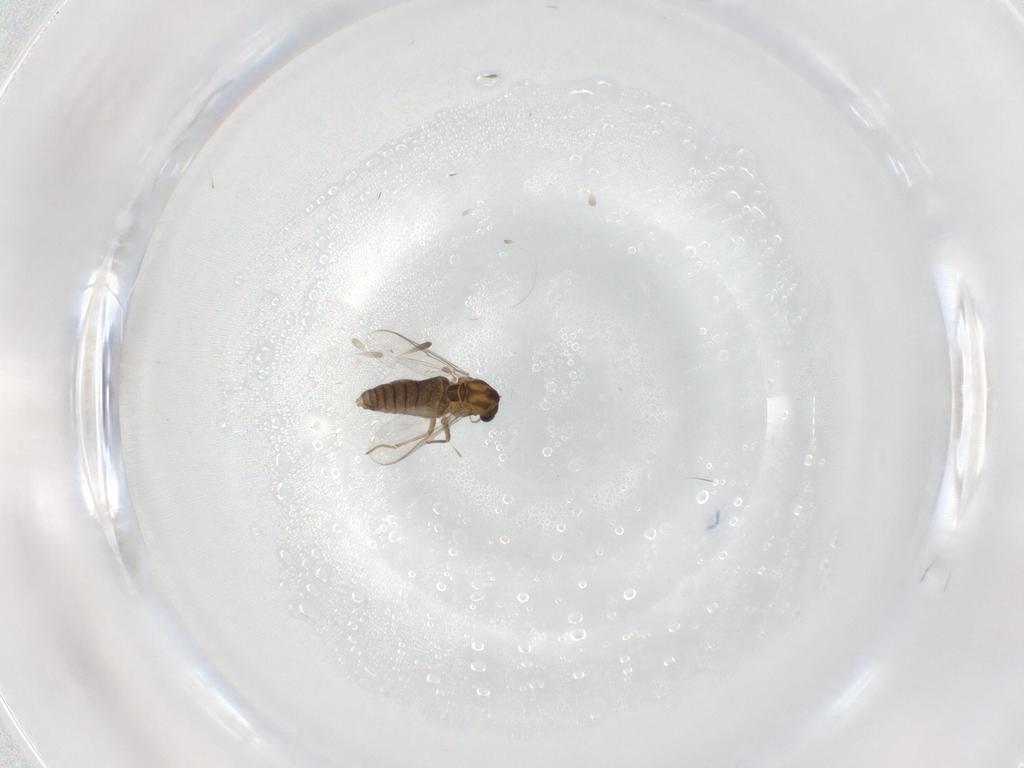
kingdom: Animalia
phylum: Arthropoda
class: Insecta
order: Diptera
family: Chironomidae
